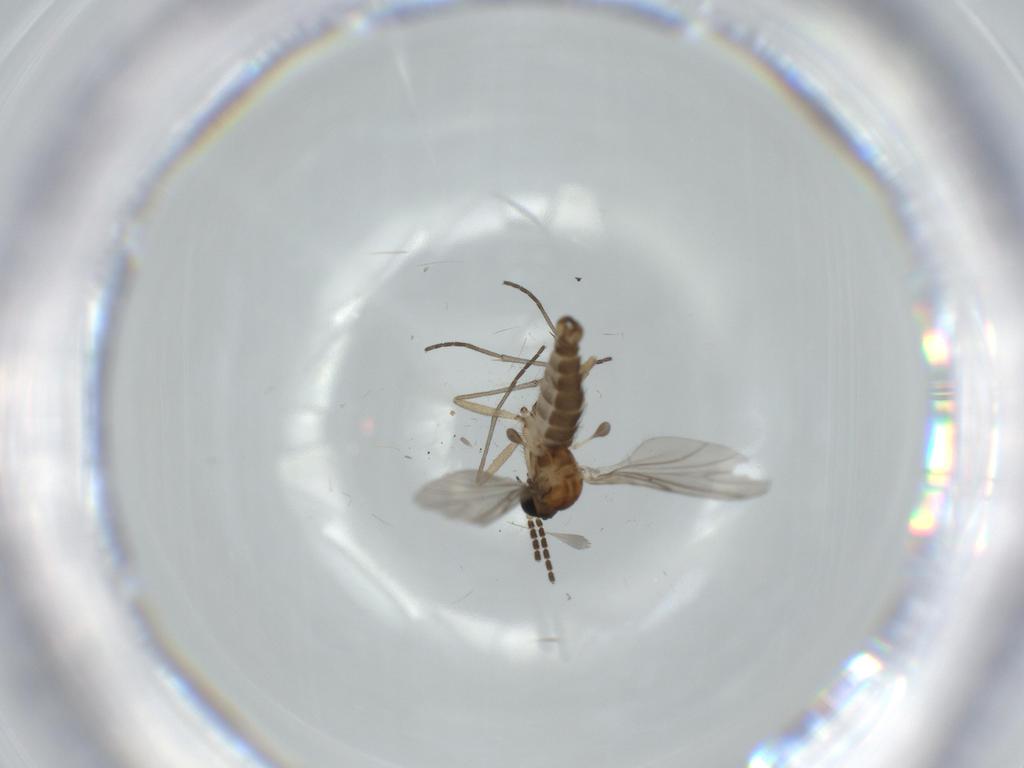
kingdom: Animalia
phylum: Arthropoda
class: Insecta
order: Diptera
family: Sciaridae
